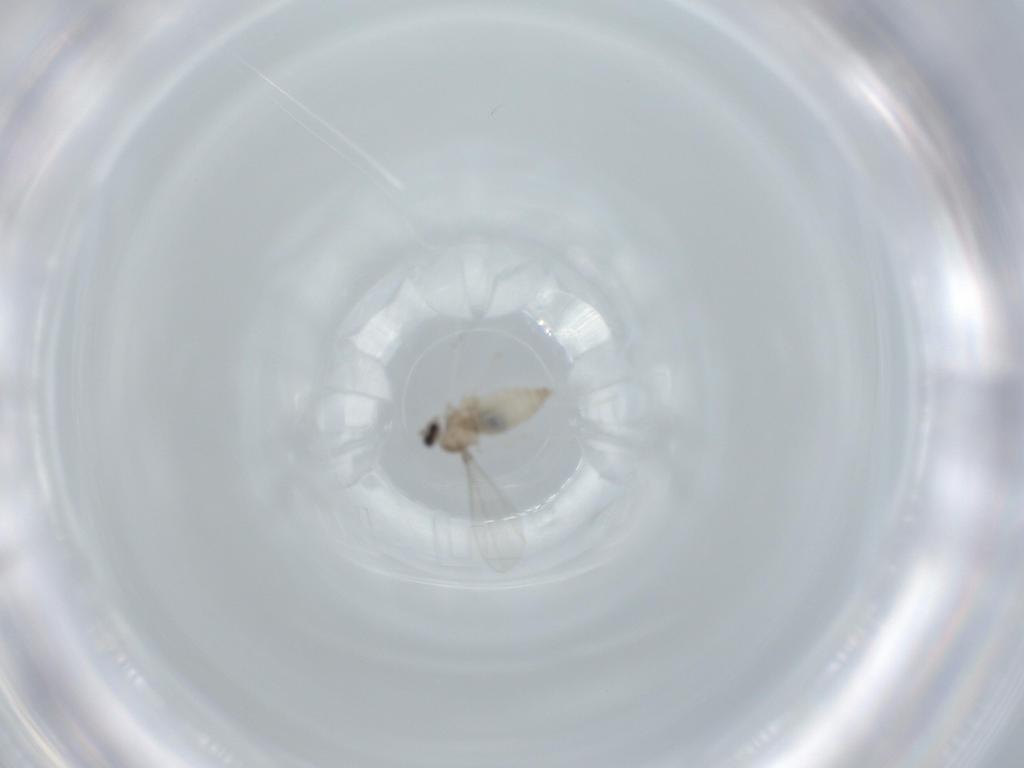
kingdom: Animalia
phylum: Arthropoda
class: Insecta
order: Diptera
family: Cecidomyiidae
